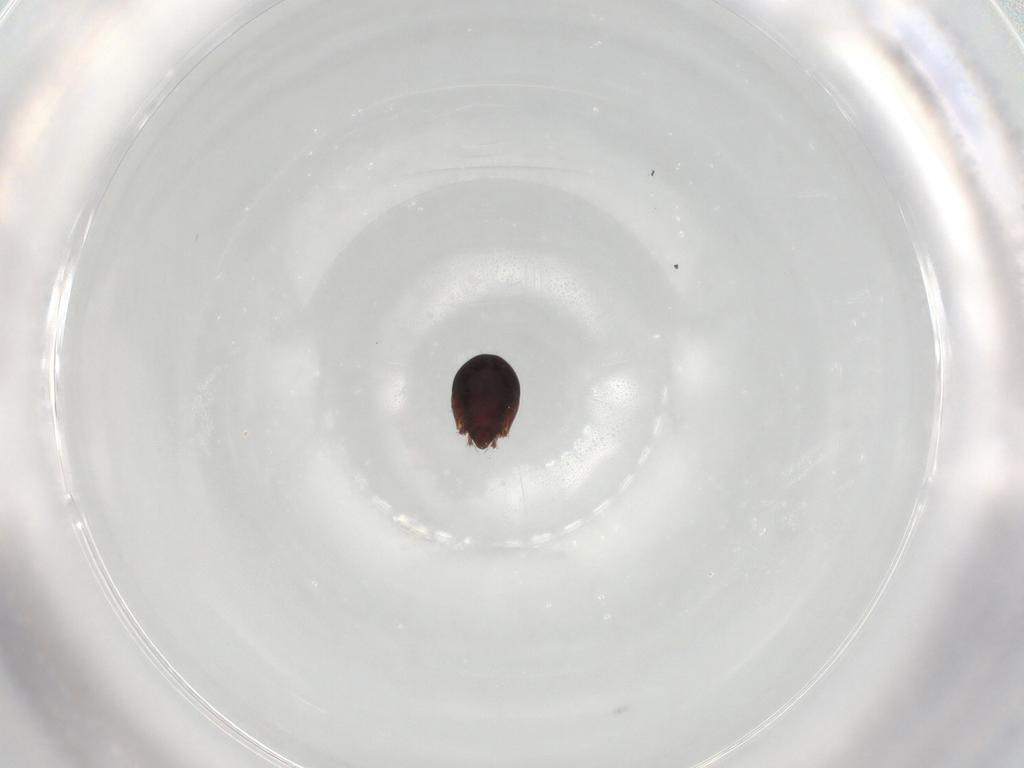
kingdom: Animalia
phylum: Arthropoda
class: Arachnida
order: Sarcoptiformes
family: Ceratozetidae
